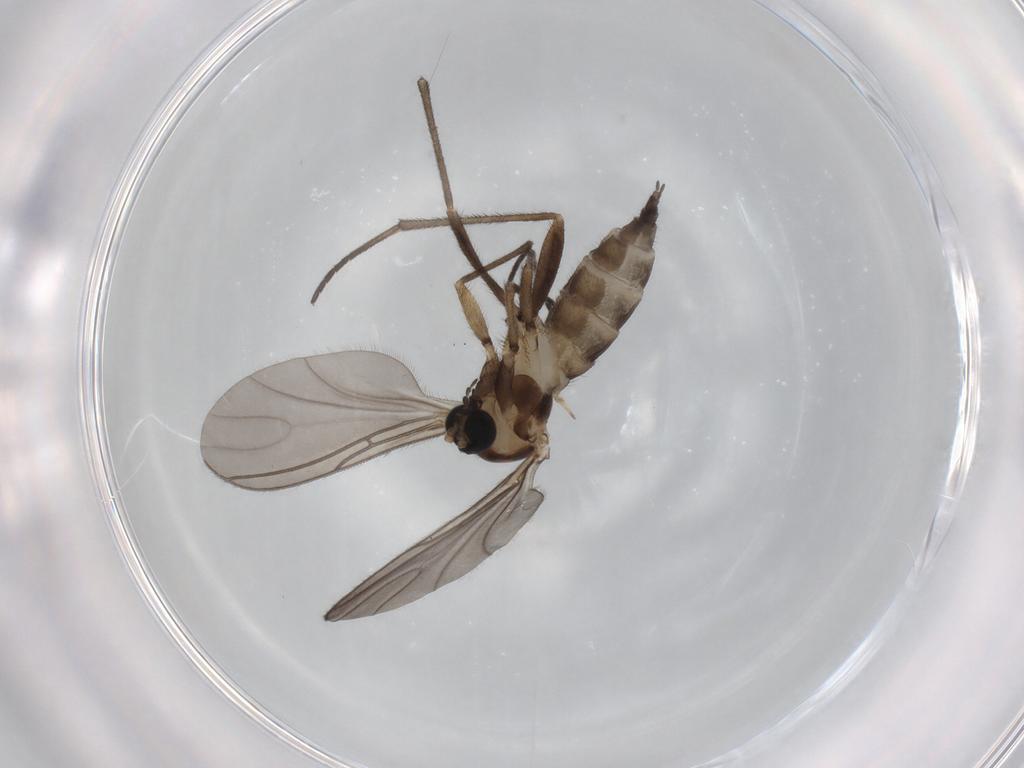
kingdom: Animalia
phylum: Arthropoda
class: Insecta
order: Diptera
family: Sciaridae
